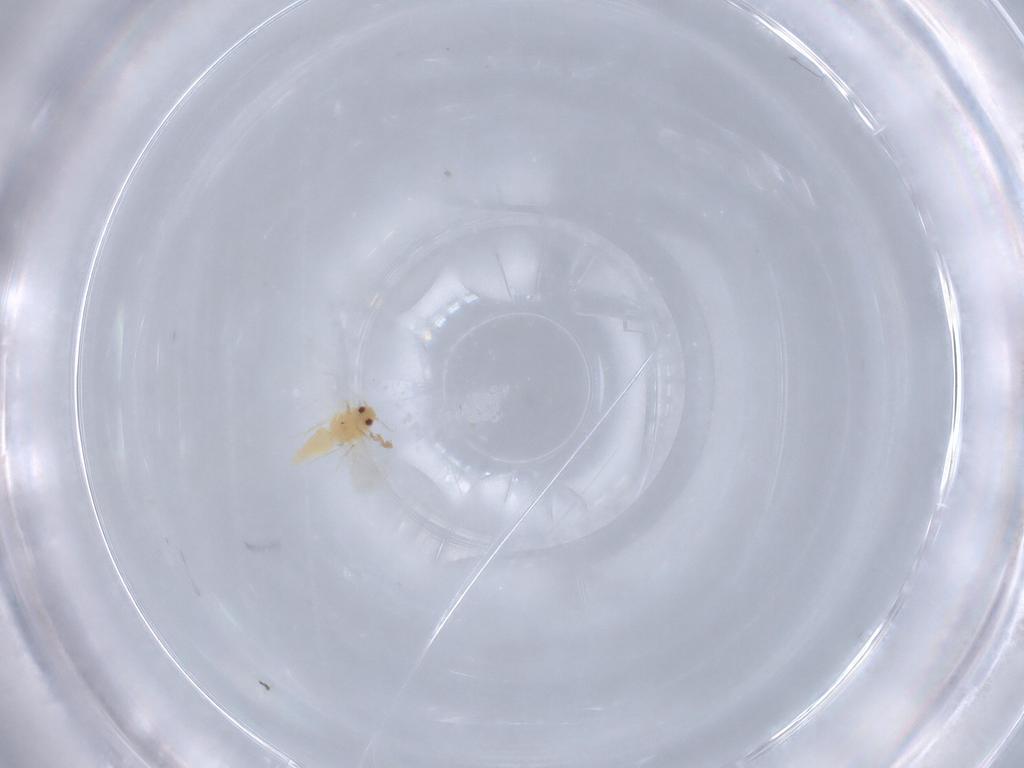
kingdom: Animalia
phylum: Arthropoda
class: Insecta
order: Hemiptera
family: Aleyrodidae
